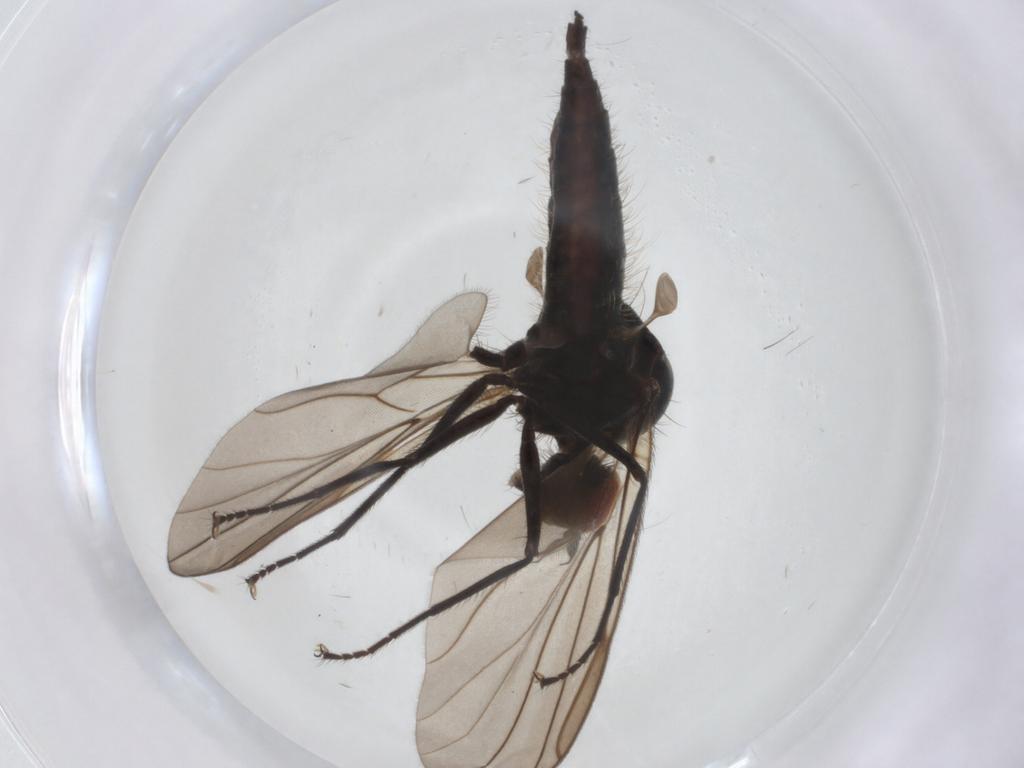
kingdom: Animalia
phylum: Arthropoda
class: Insecta
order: Diptera
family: Hybotidae
